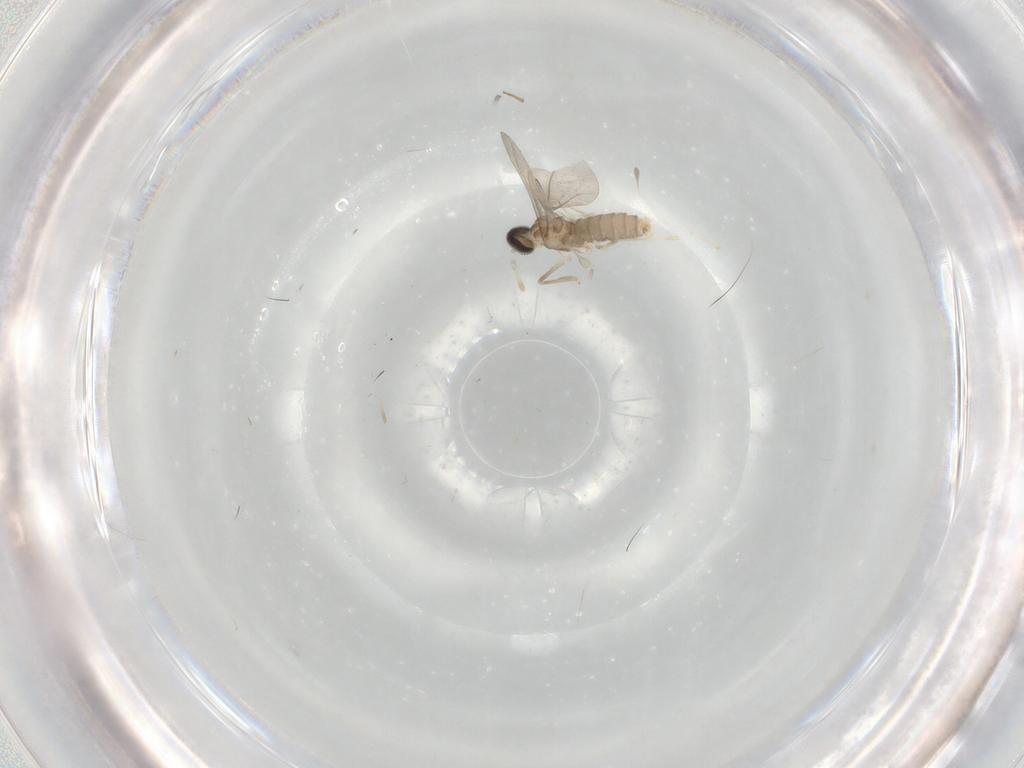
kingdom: Animalia
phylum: Arthropoda
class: Insecta
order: Diptera
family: Cecidomyiidae
